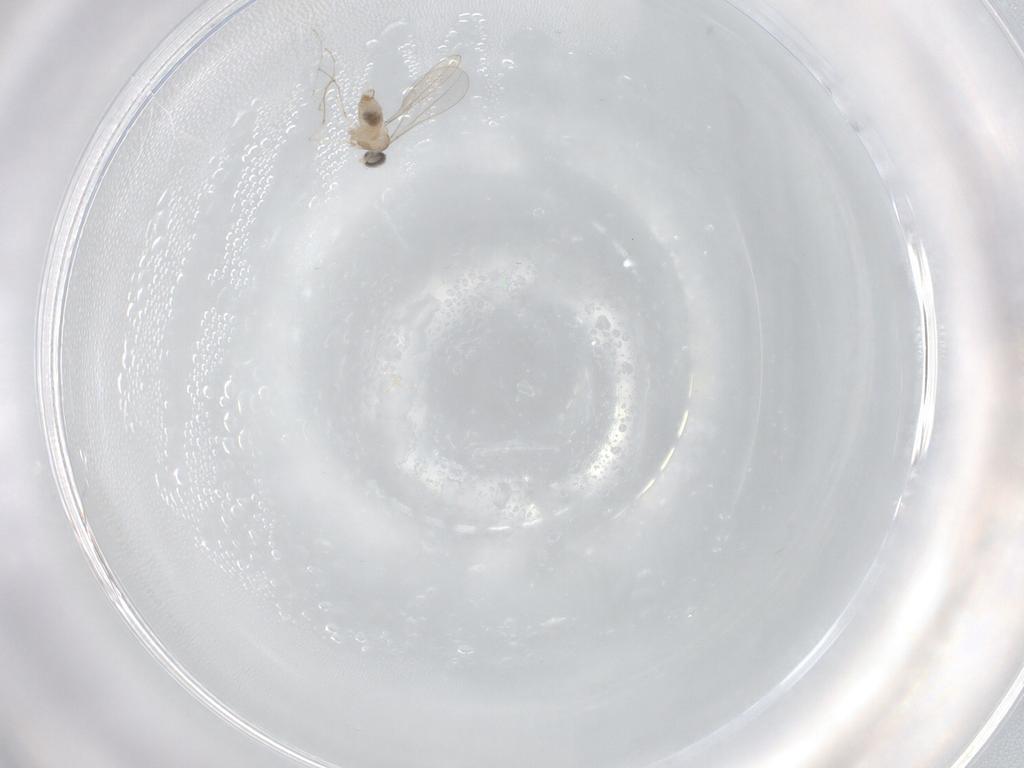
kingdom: Animalia
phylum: Arthropoda
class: Insecta
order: Diptera
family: Cecidomyiidae
